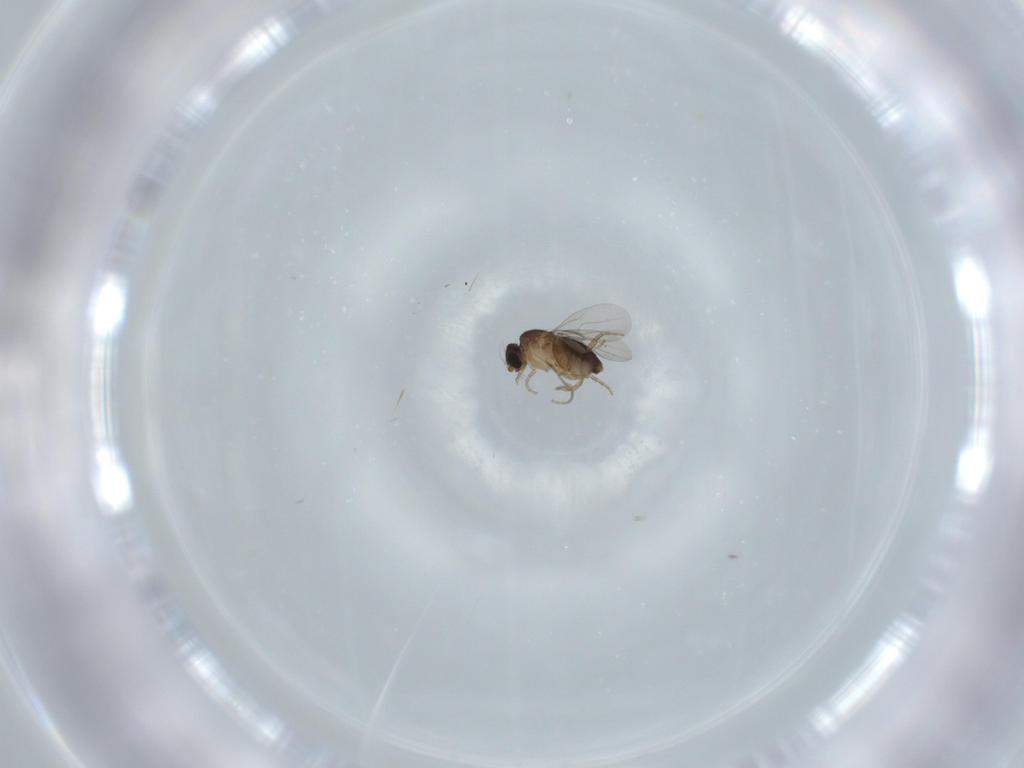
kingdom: Animalia
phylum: Arthropoda
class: Insecta
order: Diptera
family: Phoridae
